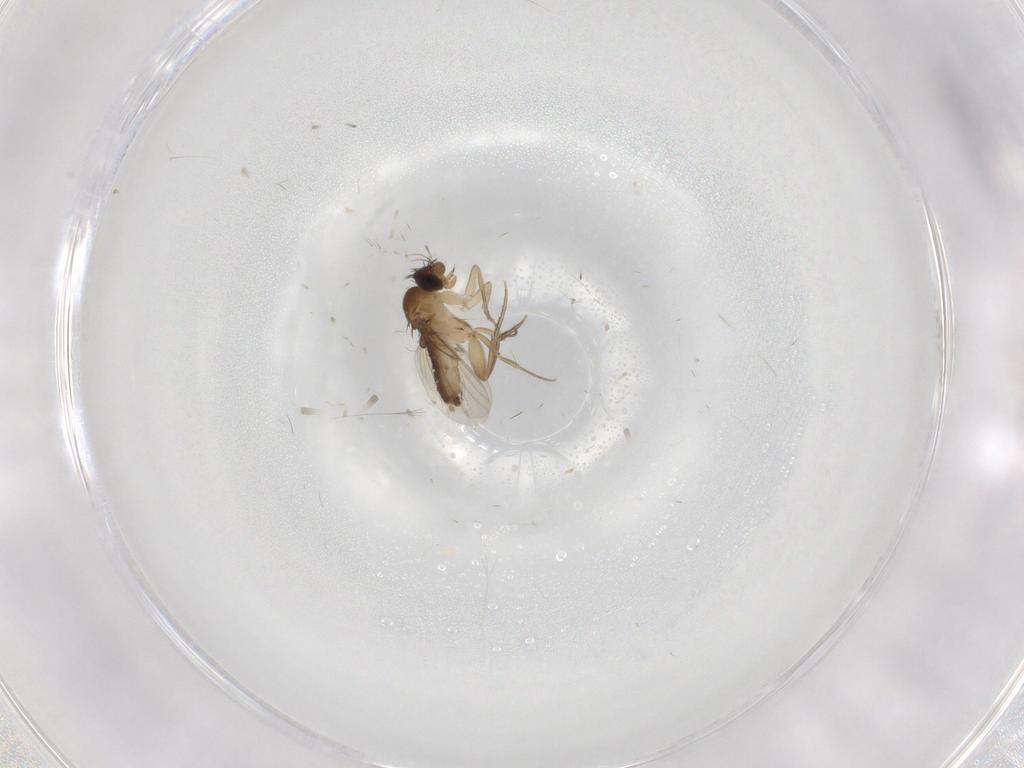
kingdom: Animalia
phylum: Arthropoda
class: Insecta
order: Diptera
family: Phoridae
